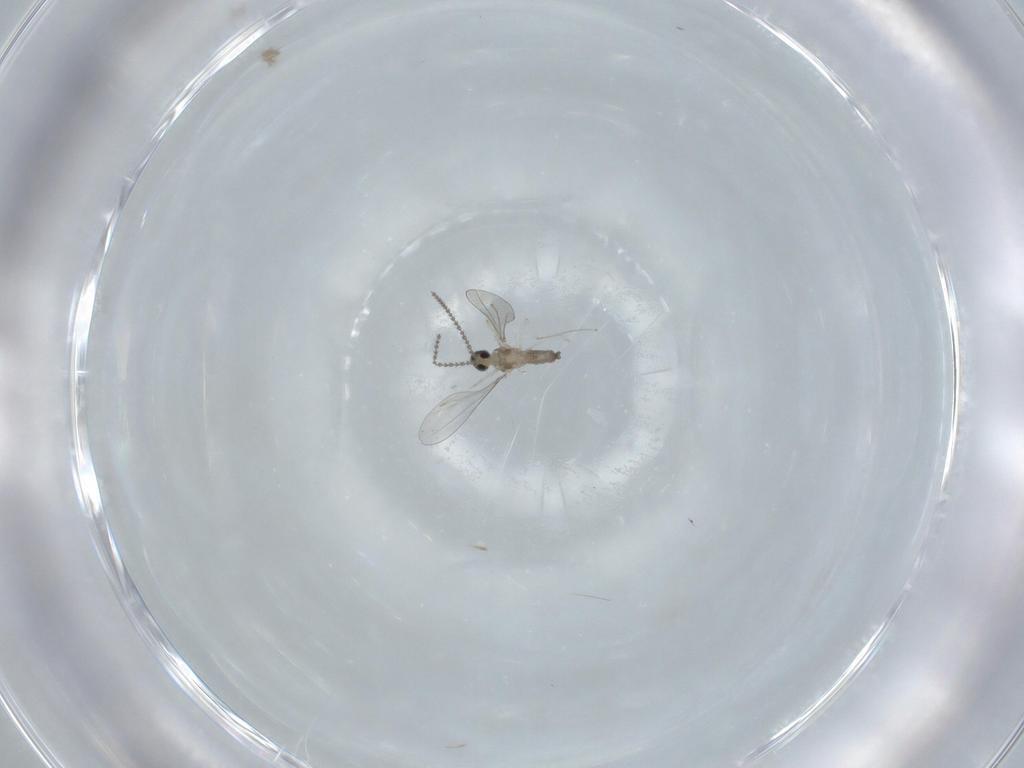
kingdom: Animalia
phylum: Arthropoda
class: Insecta
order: Diptera
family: Cecidomyiidae
